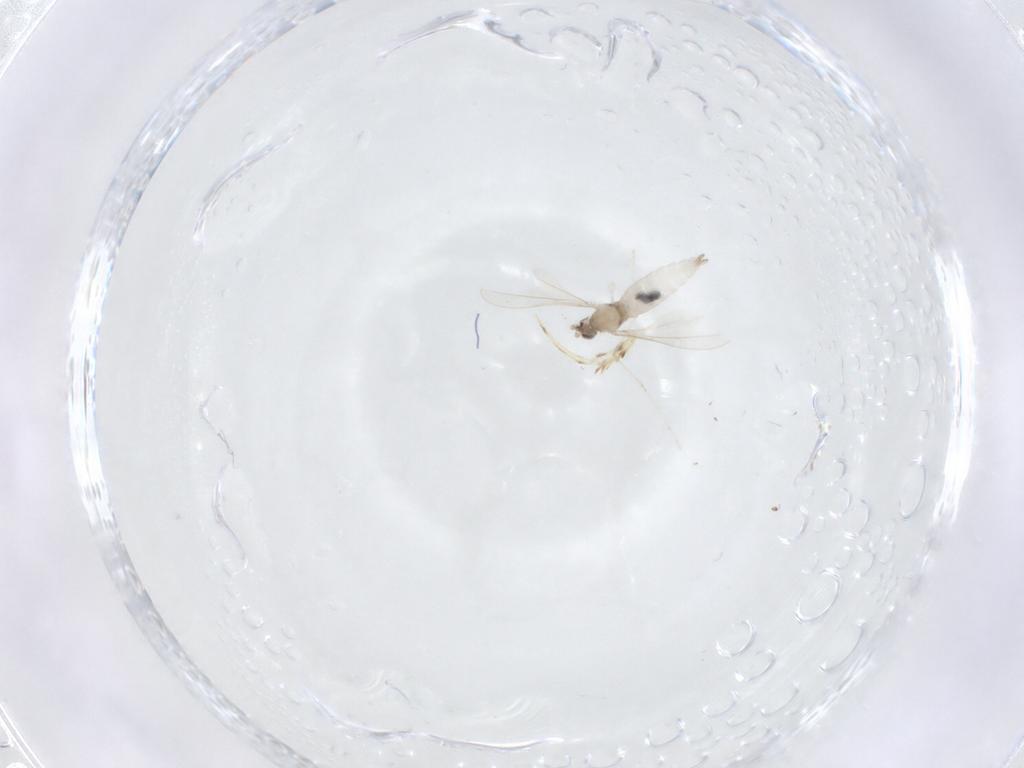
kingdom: Animalia
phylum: Arthropoda
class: Insecta
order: Diptera
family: Cecidomyiidae
